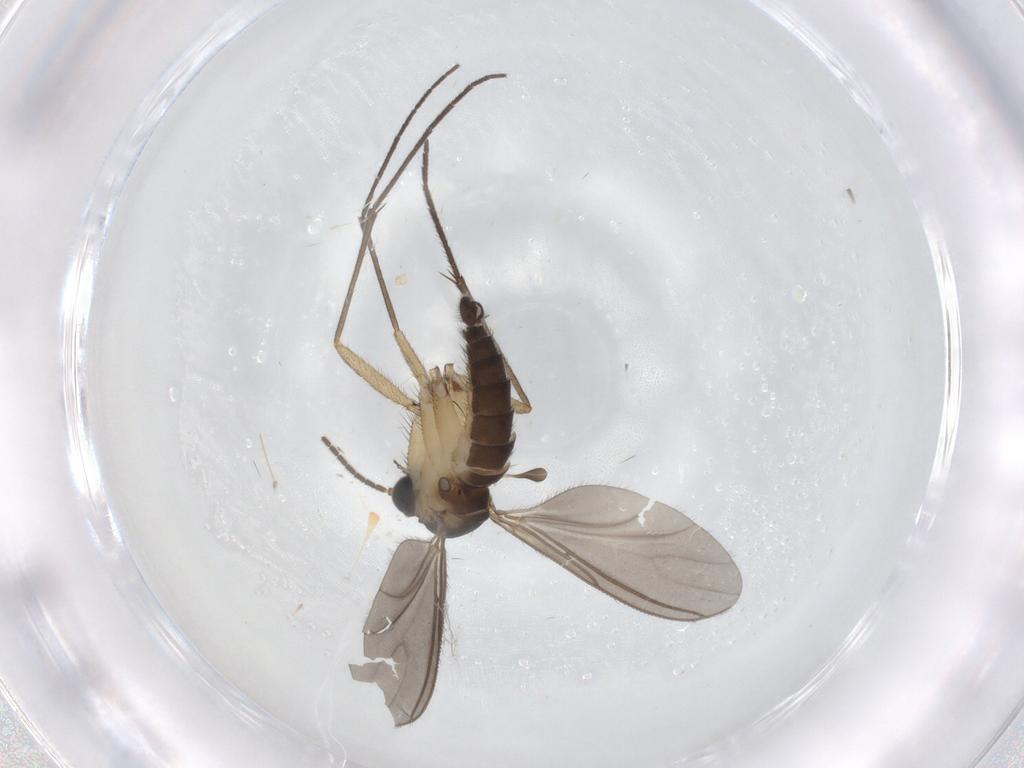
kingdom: Animalia
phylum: Arthropoda
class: Insecta
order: Diptera
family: Sciaridae
